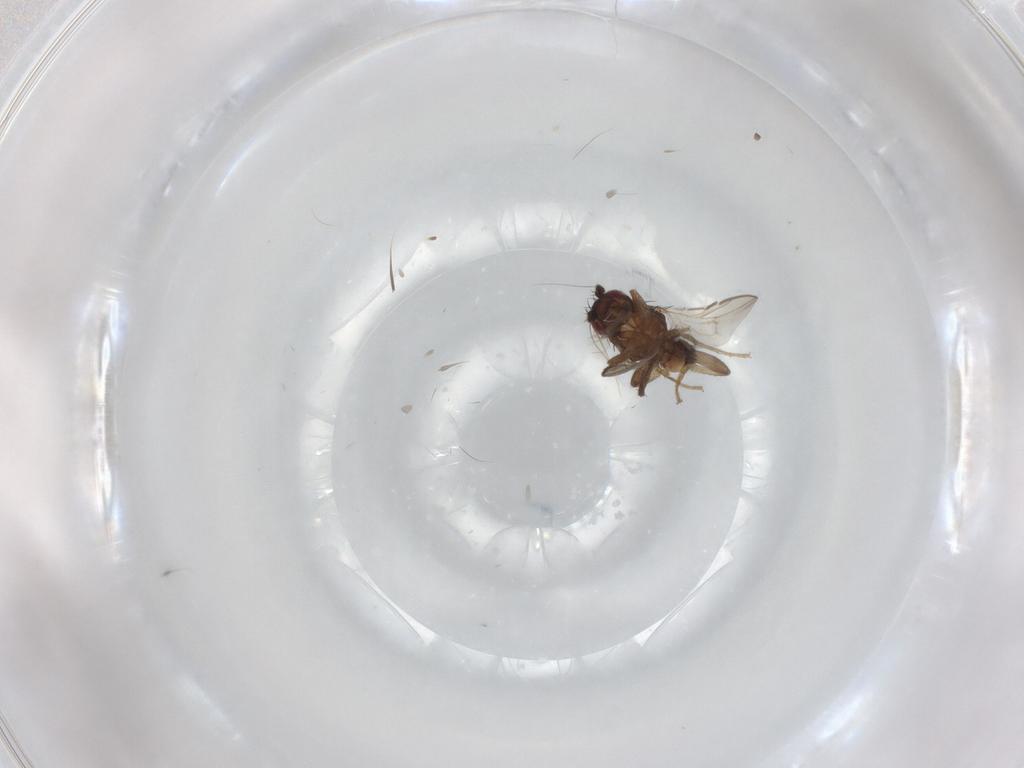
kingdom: Animalia
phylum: Arthropoda
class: Insecta
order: Diptera
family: Sphaeroceridae
